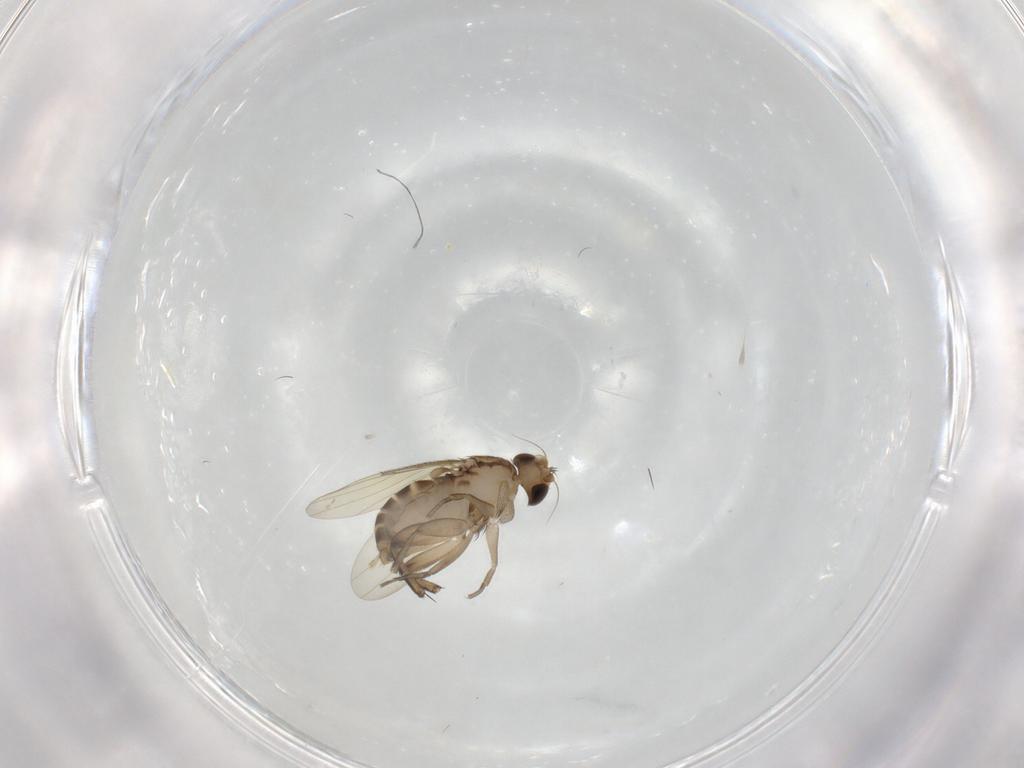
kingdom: Animalia
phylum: Arthropoda
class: Insecta
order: Diptera
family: Phoridae
